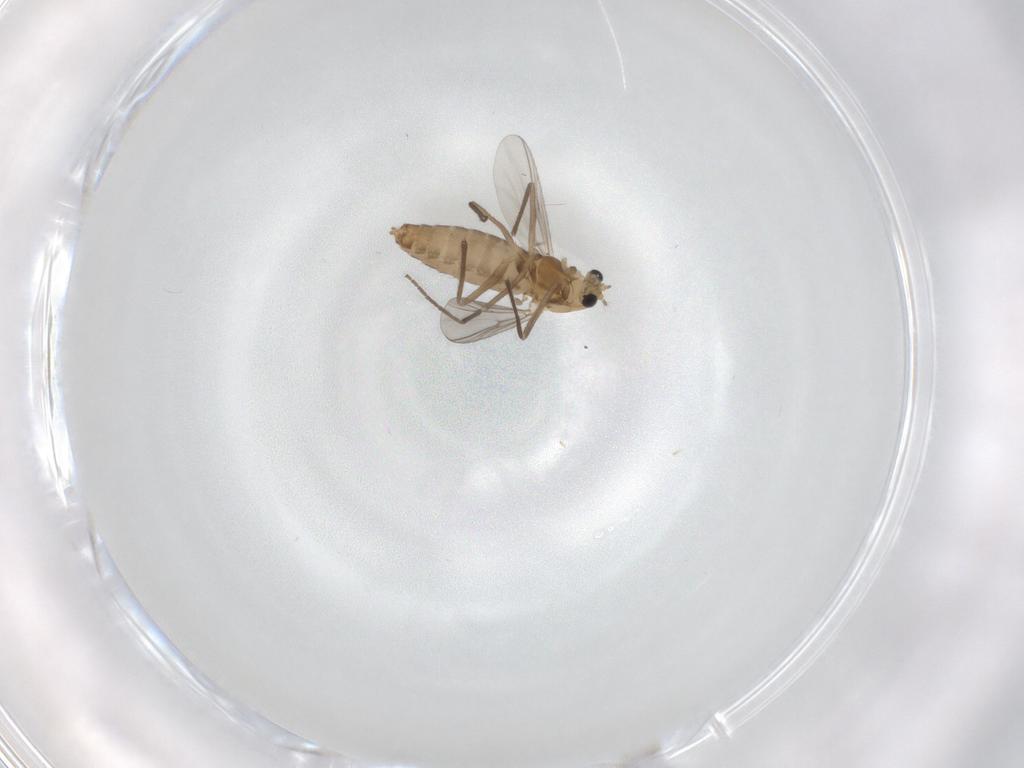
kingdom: Animalia
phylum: Arthropoda
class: Insecta
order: Diptera
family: Chironomidae
